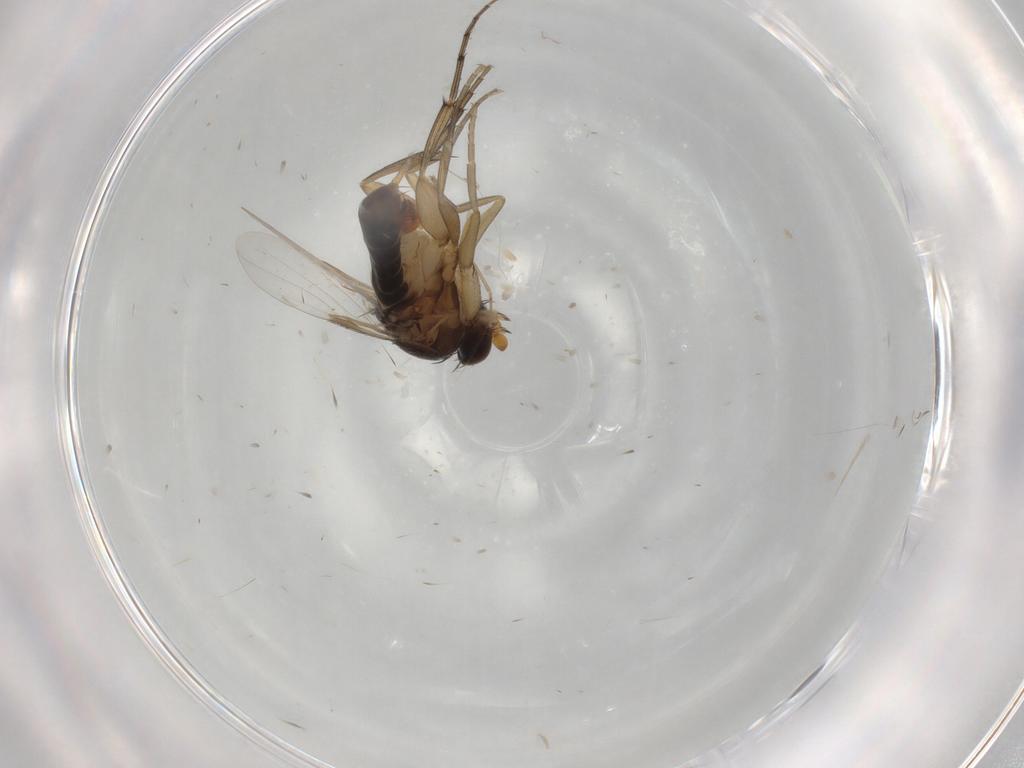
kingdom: Animalia
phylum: Arthropoda
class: Insecta
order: Diptera
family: Phoridae
